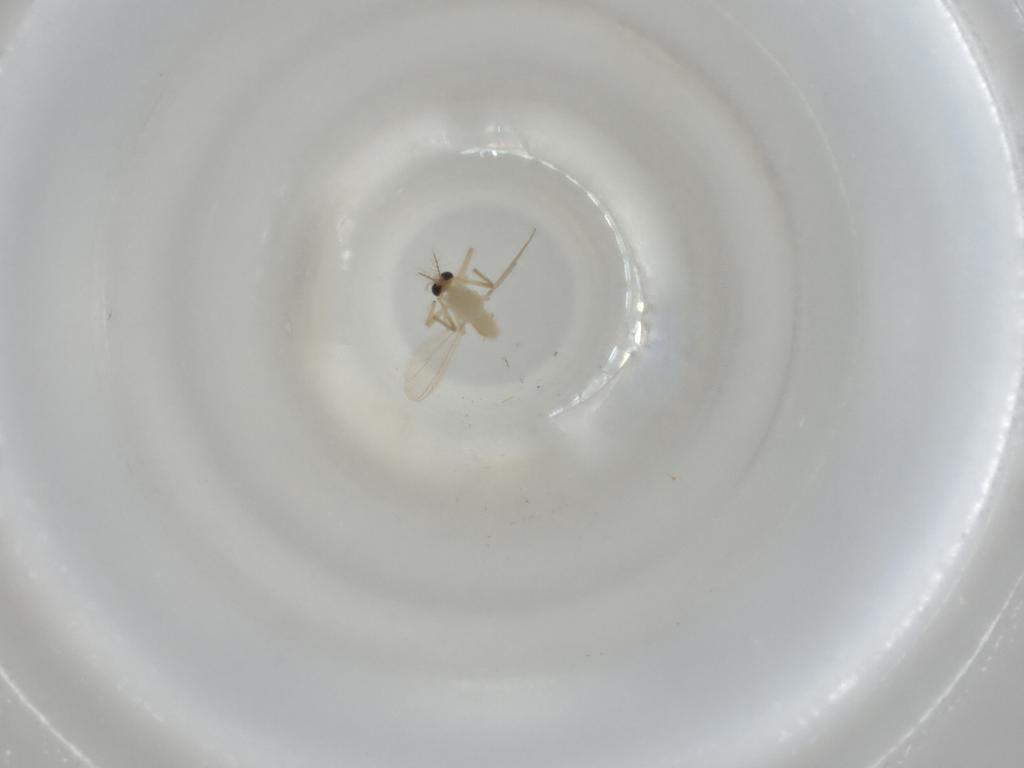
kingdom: Animalia
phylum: Arthropoda
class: Insecta
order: Diptera
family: Chironomidae
